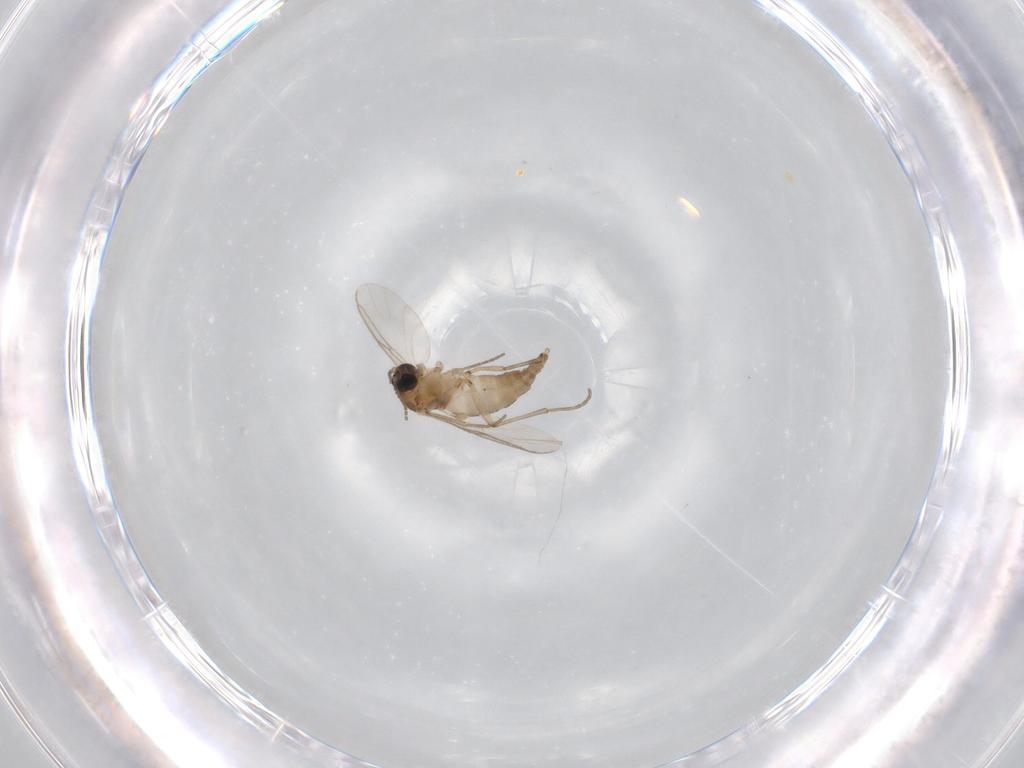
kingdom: Animalia
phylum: Arthropoda
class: Insecta
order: Diptera
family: Sciaridae
